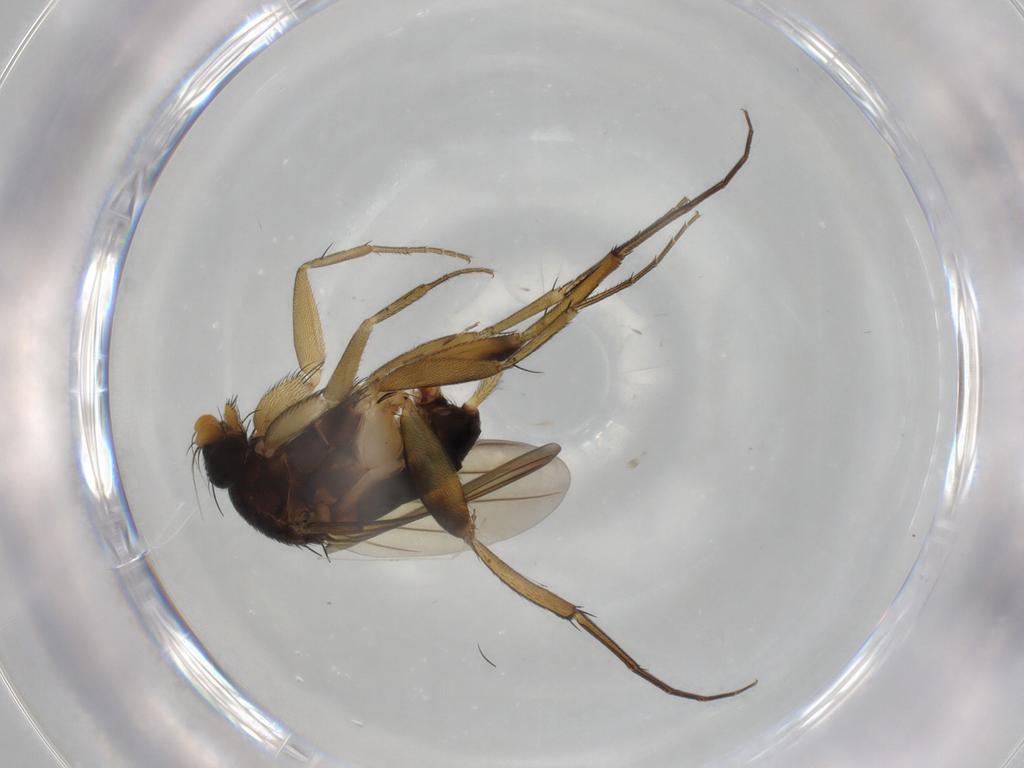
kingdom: Animalia
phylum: Arthropoda
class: Insecta
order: Diptera
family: Phoridae
